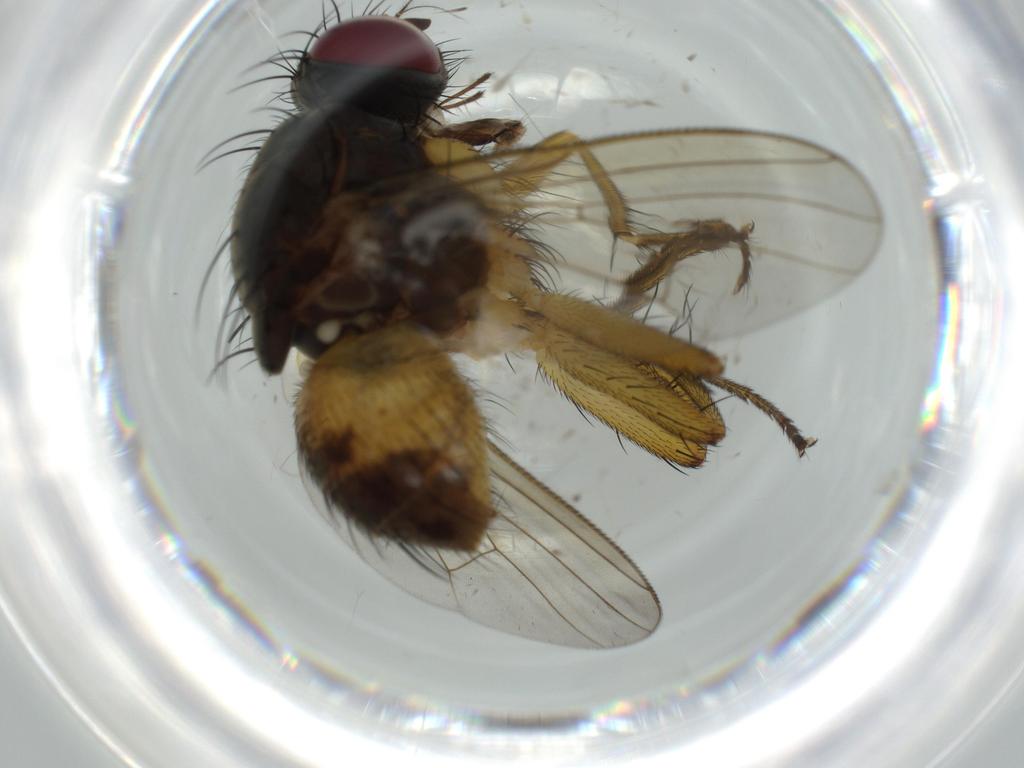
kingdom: Animalia
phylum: Arthropoda
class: Insecta
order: Diptera
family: Muscidae
